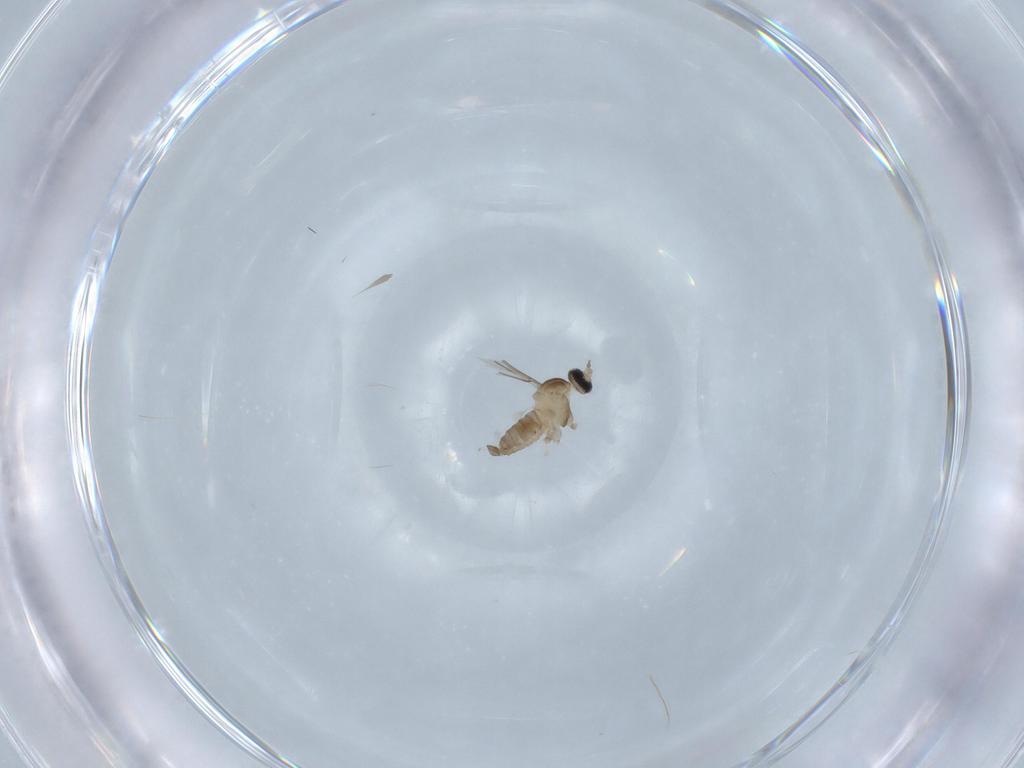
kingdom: Animalia
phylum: Arthropoda
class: Insecta
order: Diptera
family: Cecidomyiidae
